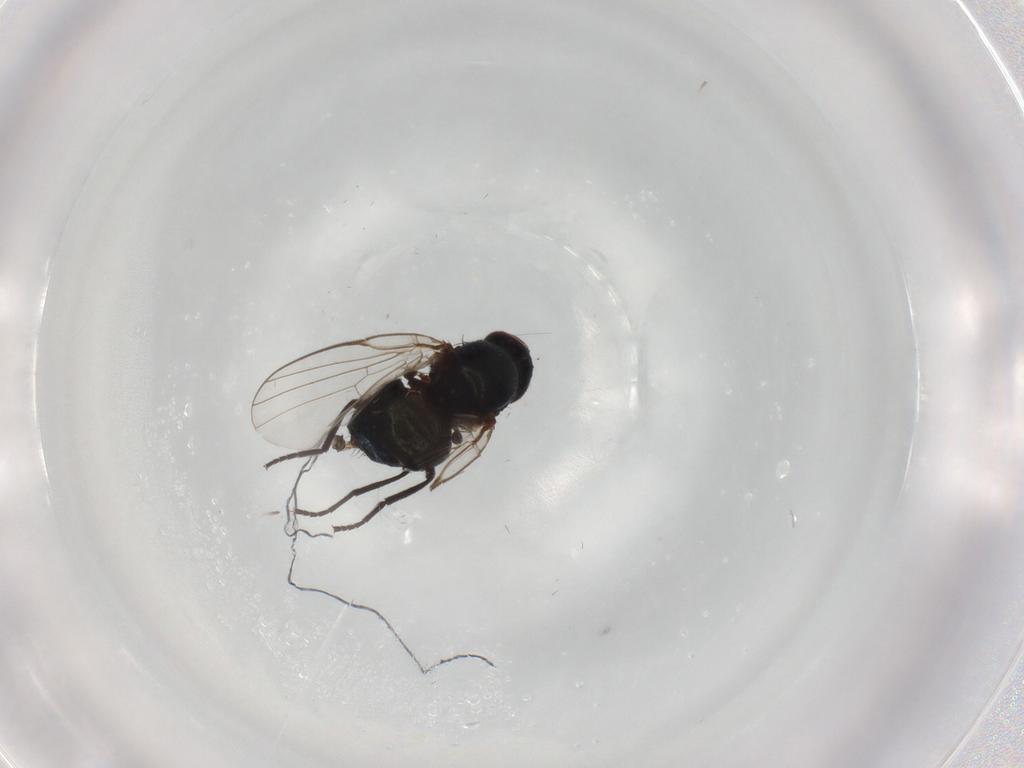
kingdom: Animalia
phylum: Arthropoda
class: Insecta
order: Diptera
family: Agromyzidae
